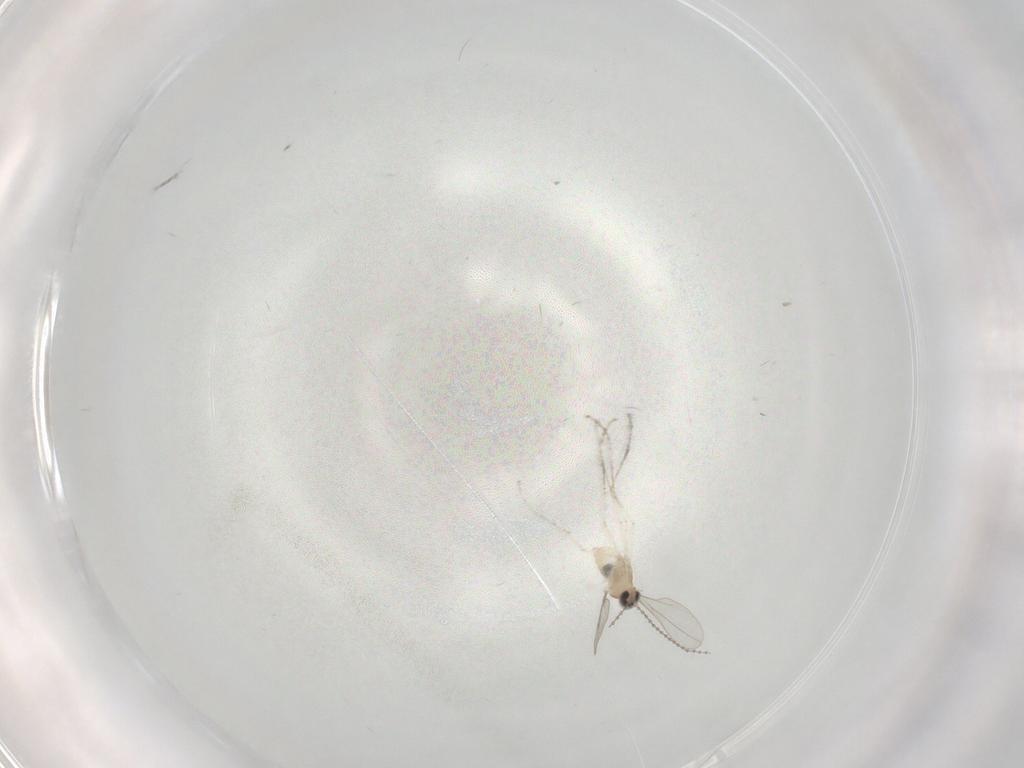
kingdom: Animalia
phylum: Arthropoda
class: Insecta
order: Diptera
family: Cecidomyiidae
